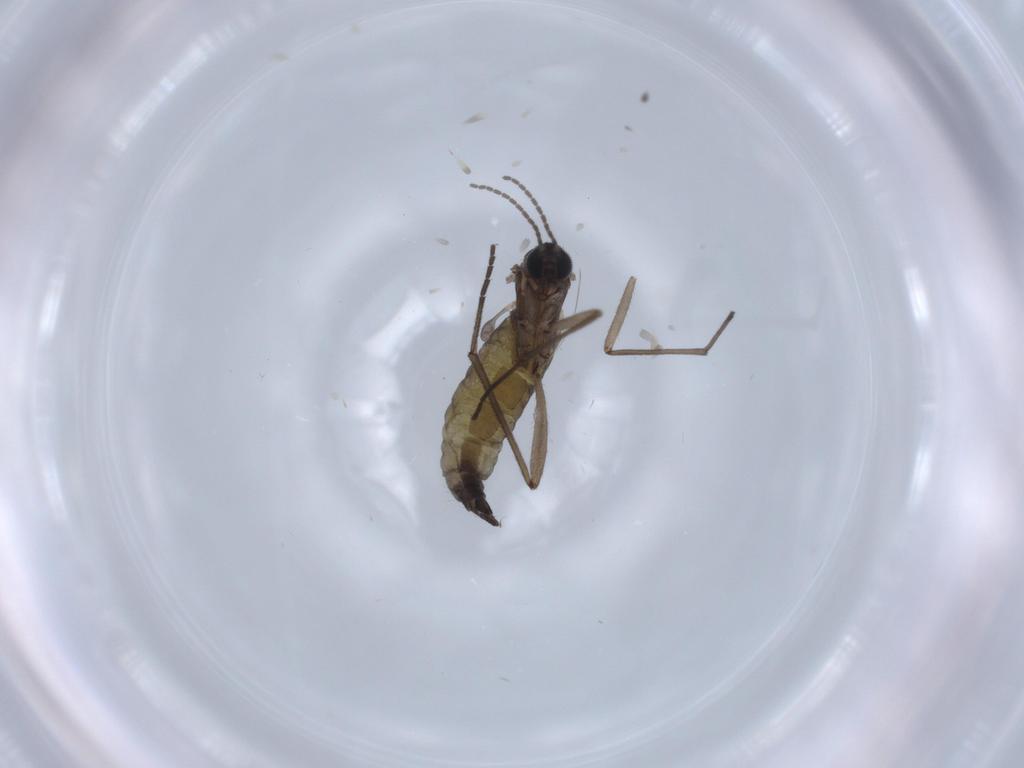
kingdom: Animalia
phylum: Arthropoda
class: Insecta
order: Diptera
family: Sciaridae
